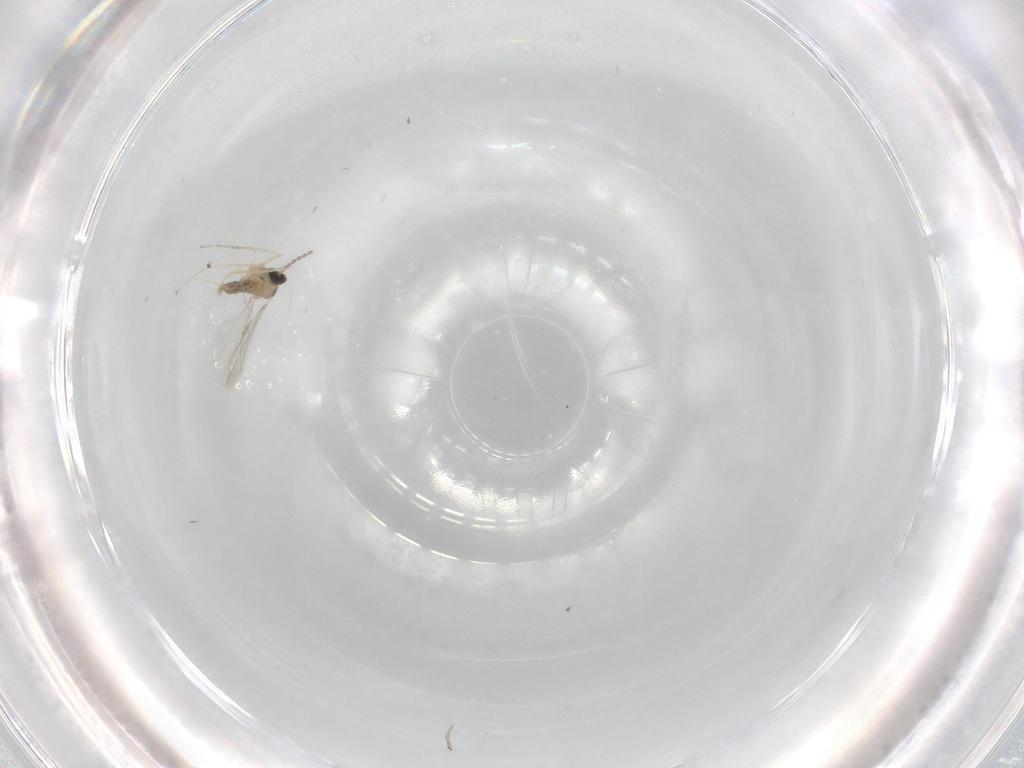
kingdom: Animalia
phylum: Arthropoda
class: Insecta
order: Diptera
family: Cecidomyiidae
